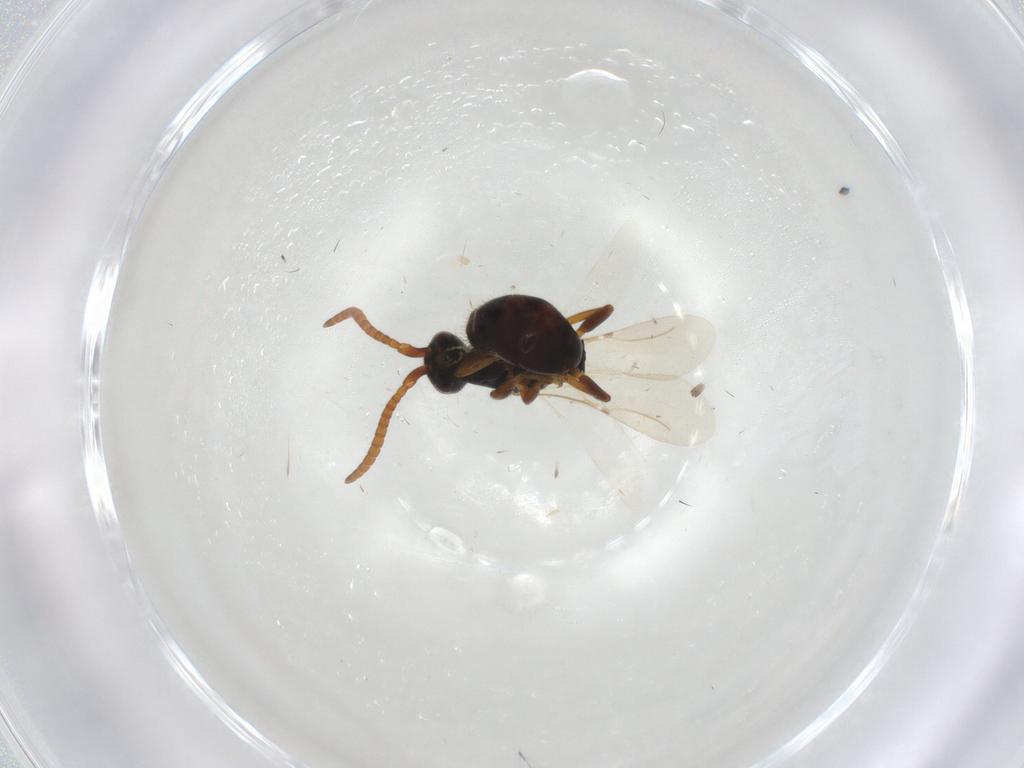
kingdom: Animalia
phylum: Arthropoda
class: Insecta
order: Hymenoptera
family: Bethylidae
